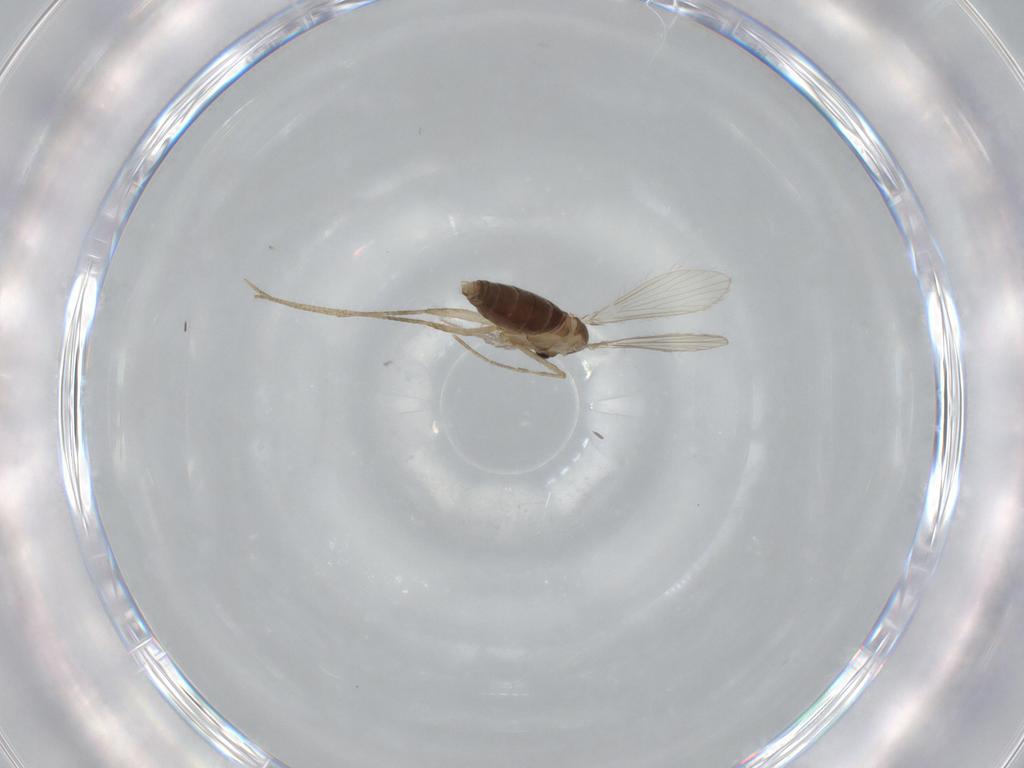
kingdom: Animalia
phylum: Arthropoda
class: Insecta
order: Diptera
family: Psychodidae
